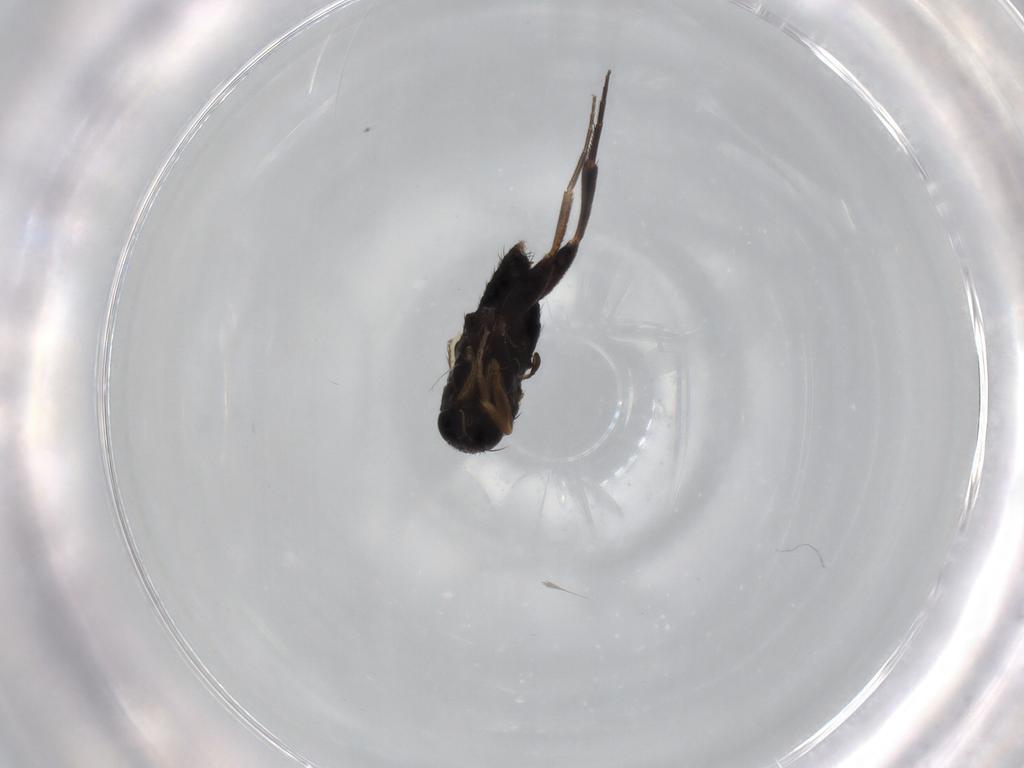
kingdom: Animalia
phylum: Arthropoda
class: Insecta
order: Diptera
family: Phoridae
